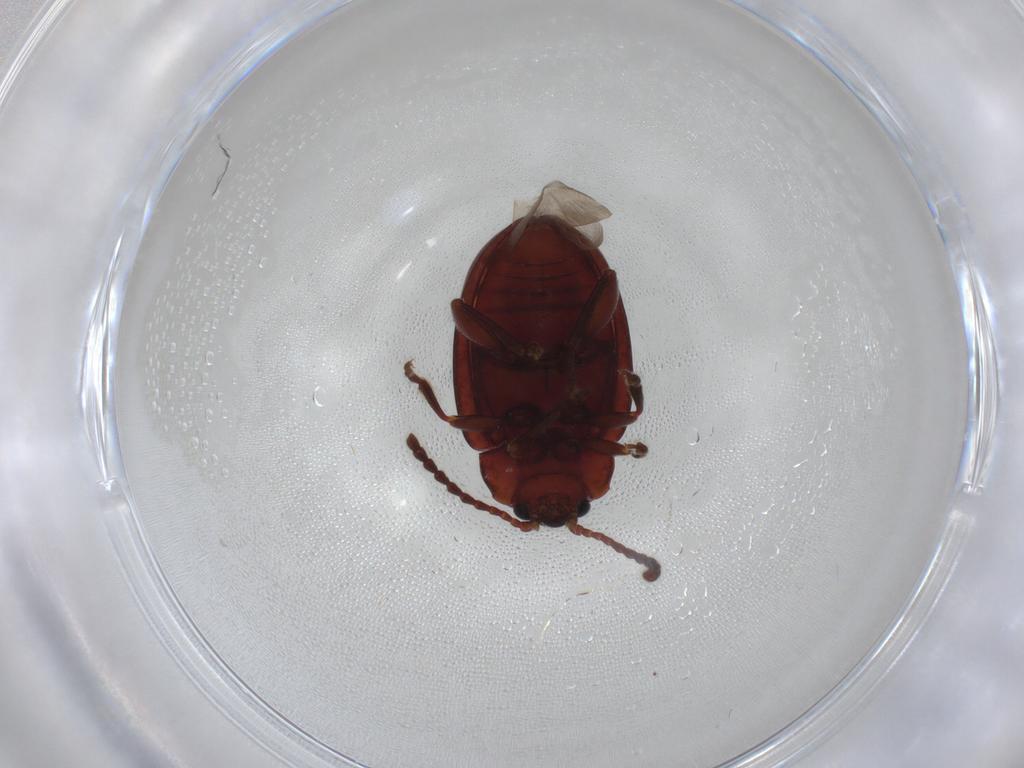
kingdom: Animalia
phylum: Arthropoda
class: Insecta
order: Coleoptera
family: Chrysomelidae
